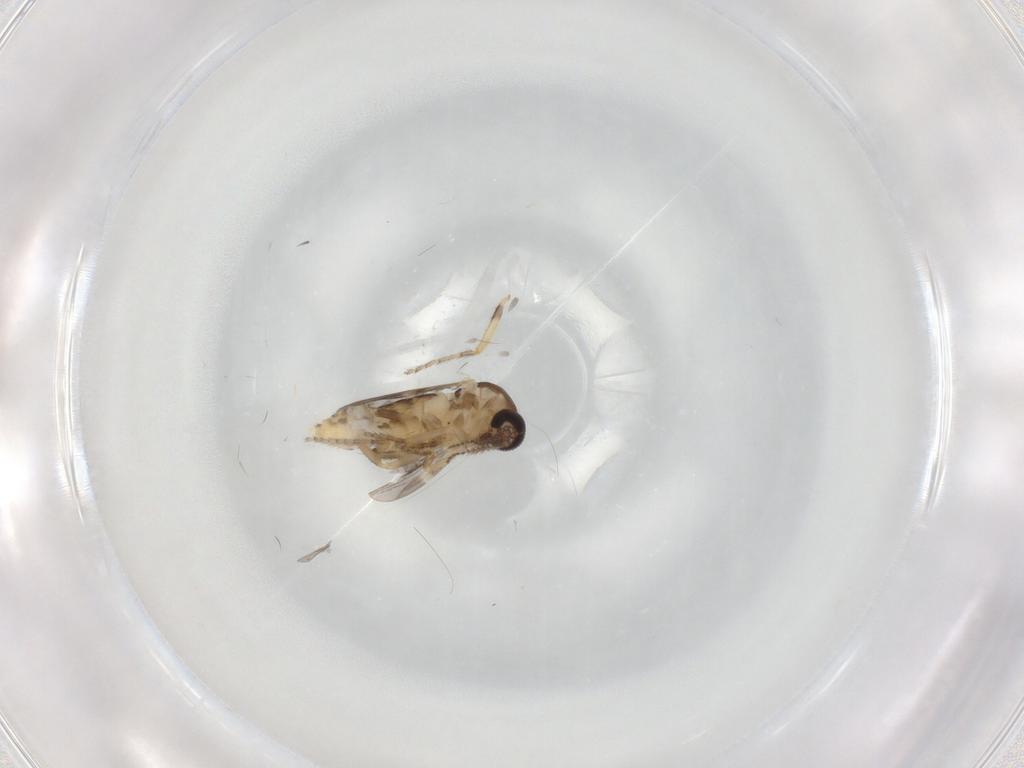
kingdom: Animalia
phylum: Arthropoda
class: Insecta
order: Diptera
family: Ceratopogonidae
